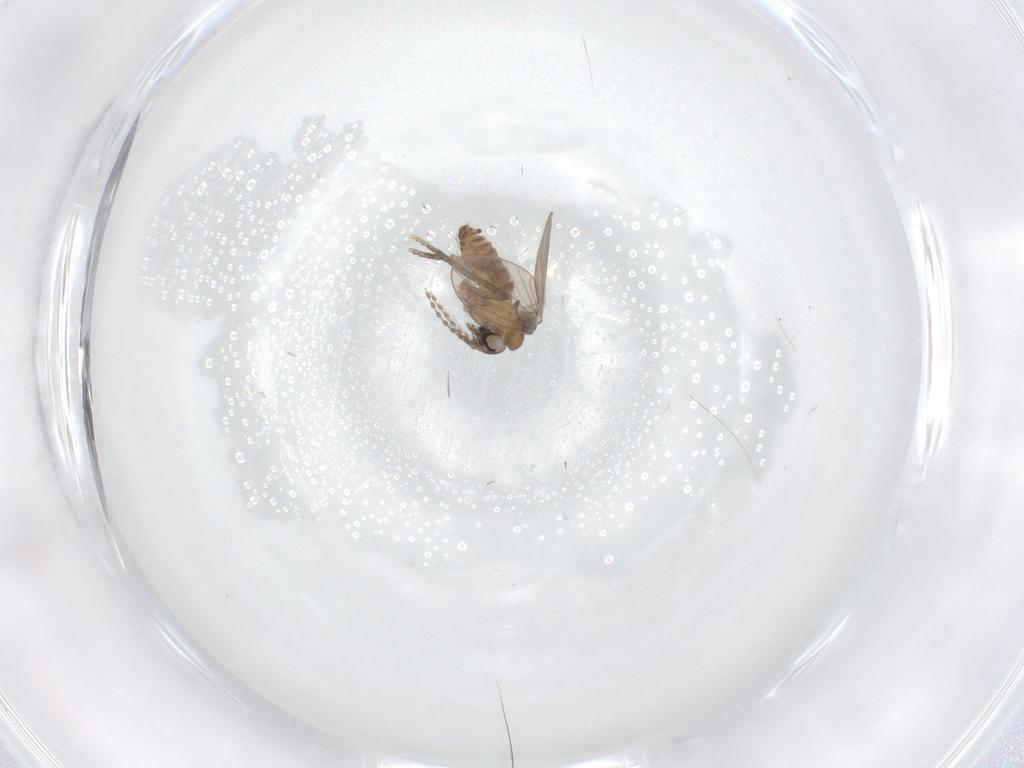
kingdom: Animalia
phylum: Arthropoda
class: Insecta
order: Diptera
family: Psychodidae
